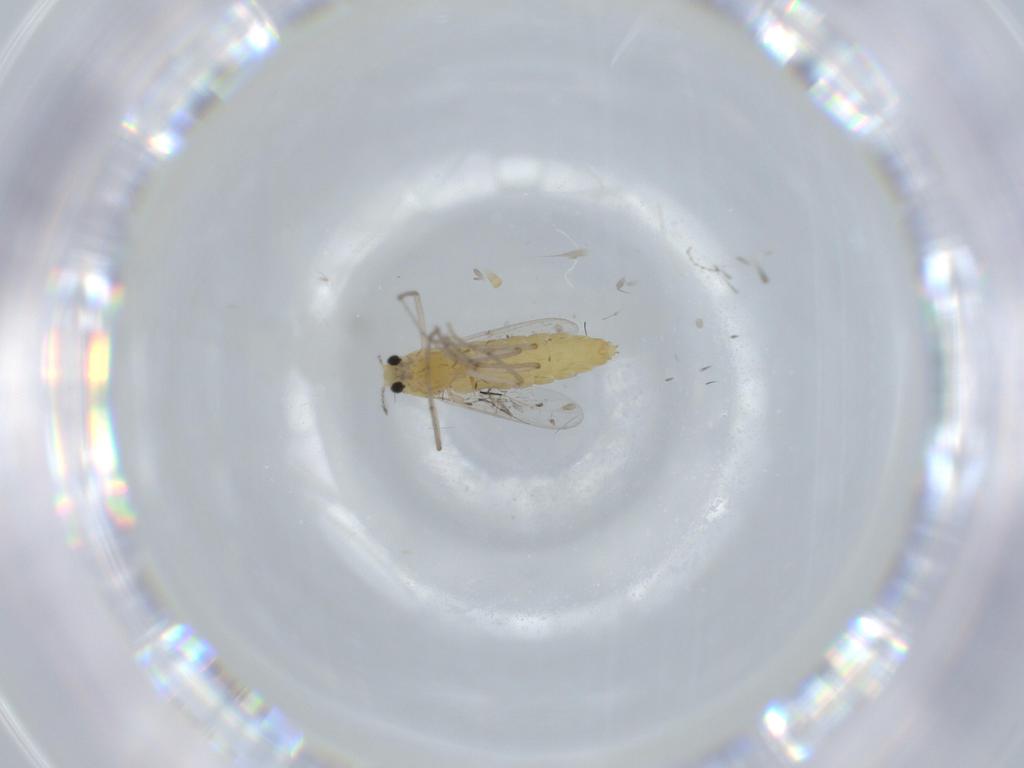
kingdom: Animalia
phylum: Arthropoda
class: Insecta
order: Diptera
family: Chironomidae
